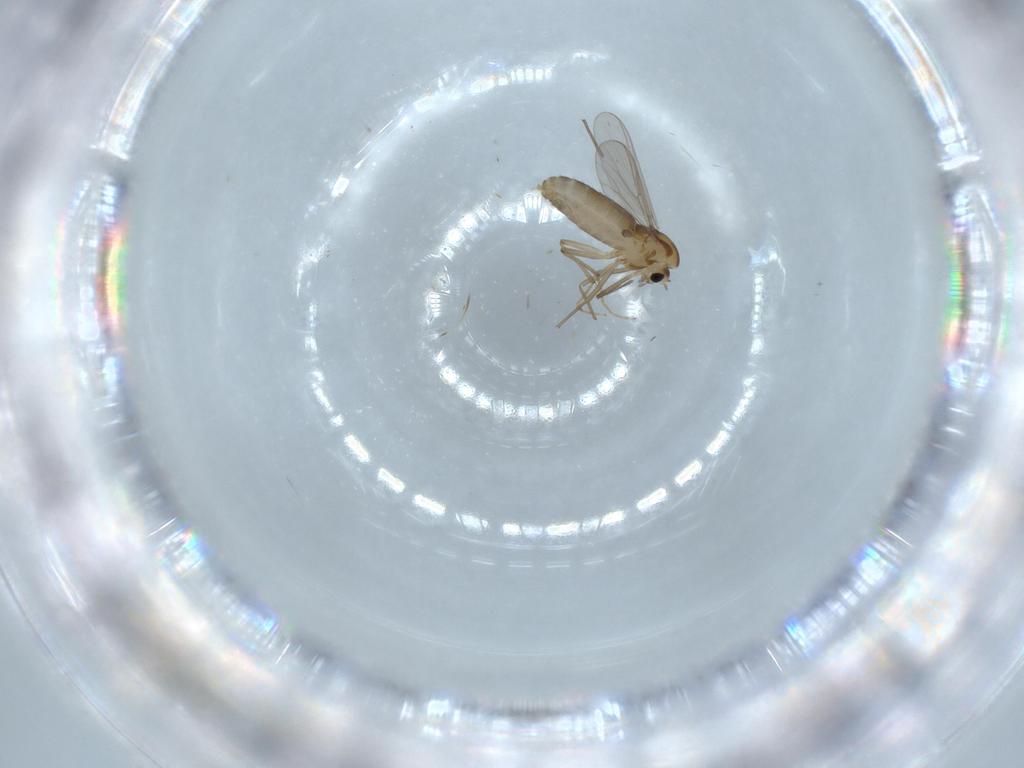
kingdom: Animalia
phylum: Arthropoda
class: Insecta
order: Diptera
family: Chironomidae
